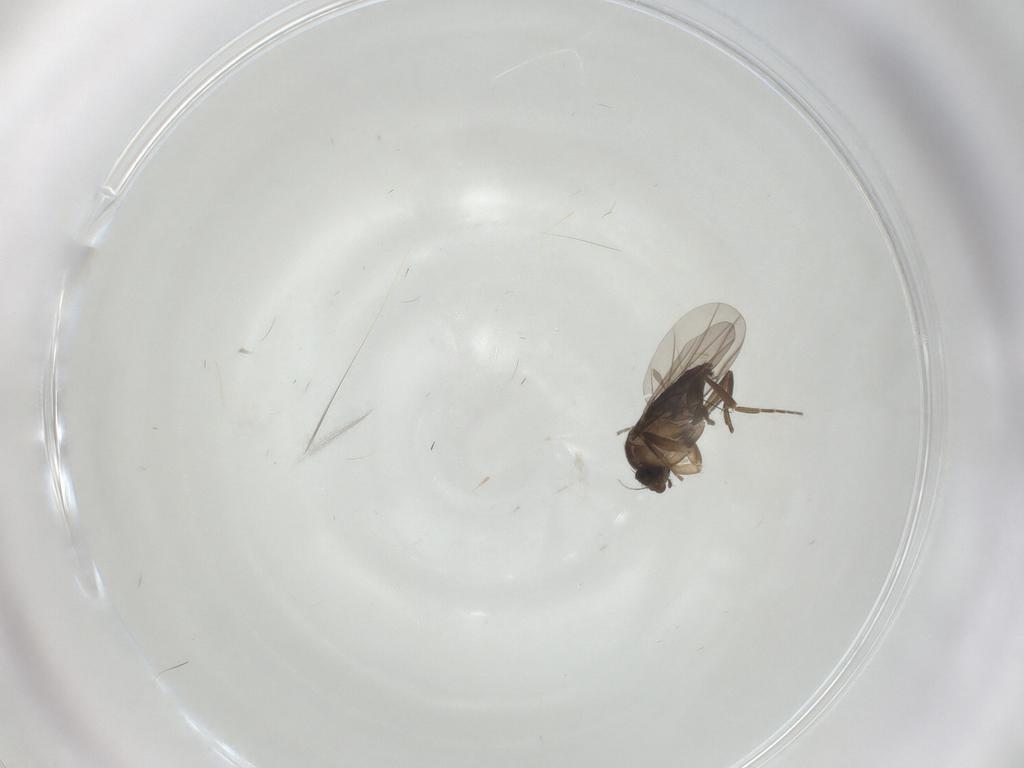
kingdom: Animalia
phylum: Arthropoda
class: Insecta
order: Diptera
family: Phoridae
